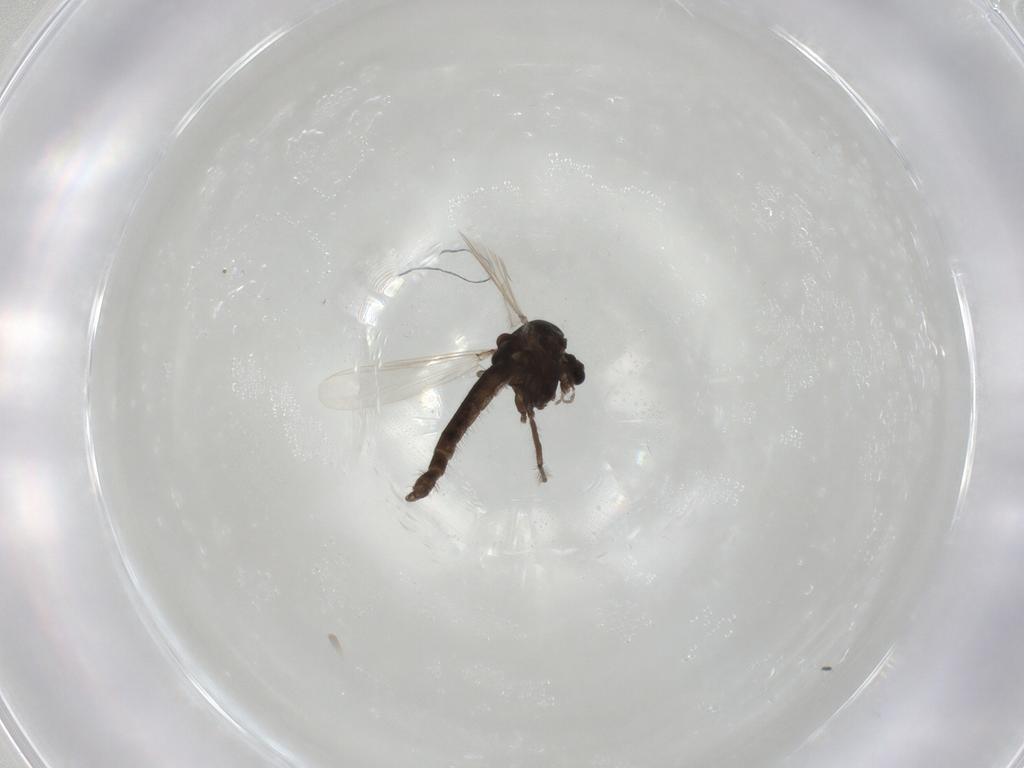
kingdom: Animalia
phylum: Arthropoda
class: Insecta
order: Diptera
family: Chironomidae
